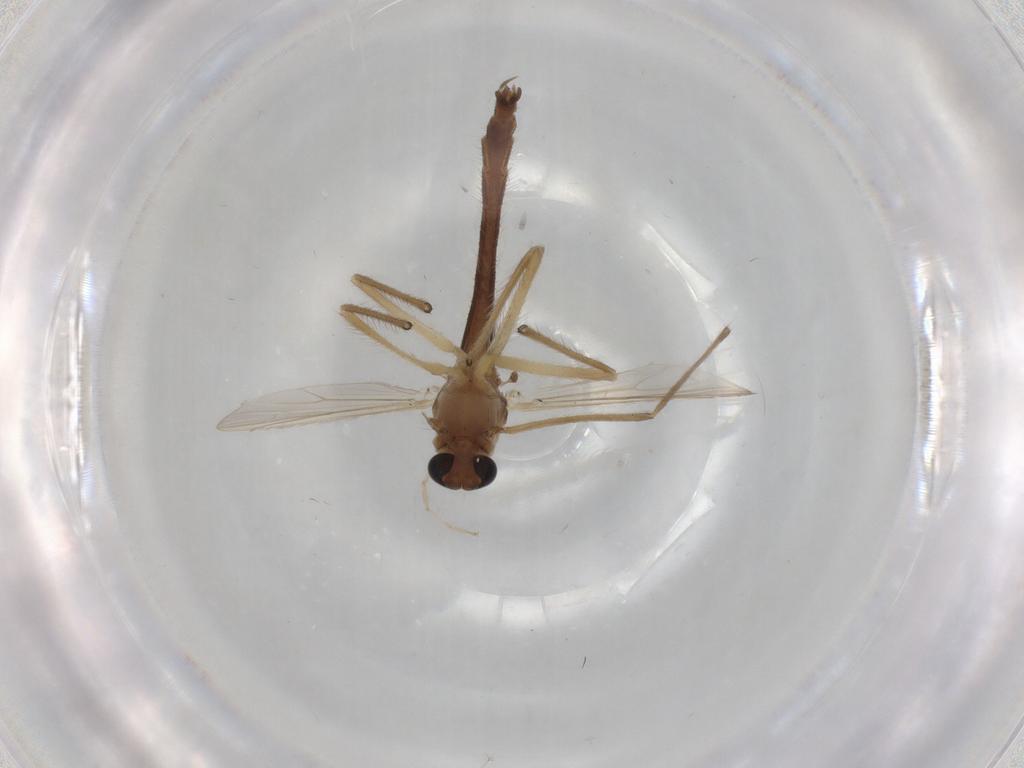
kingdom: Animalia
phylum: Arthropoda
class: Insecta
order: Diptera
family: Chironomidae
